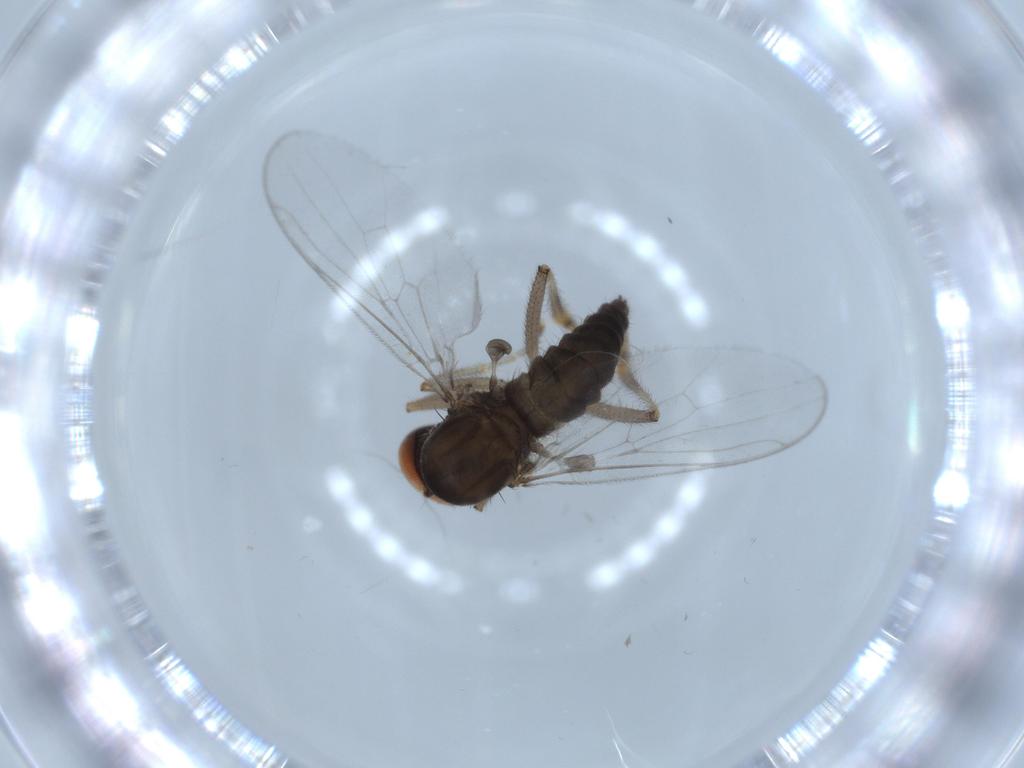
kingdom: Animalia
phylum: Arthropoda
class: Insecta
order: Diptera
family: Hybotidae
